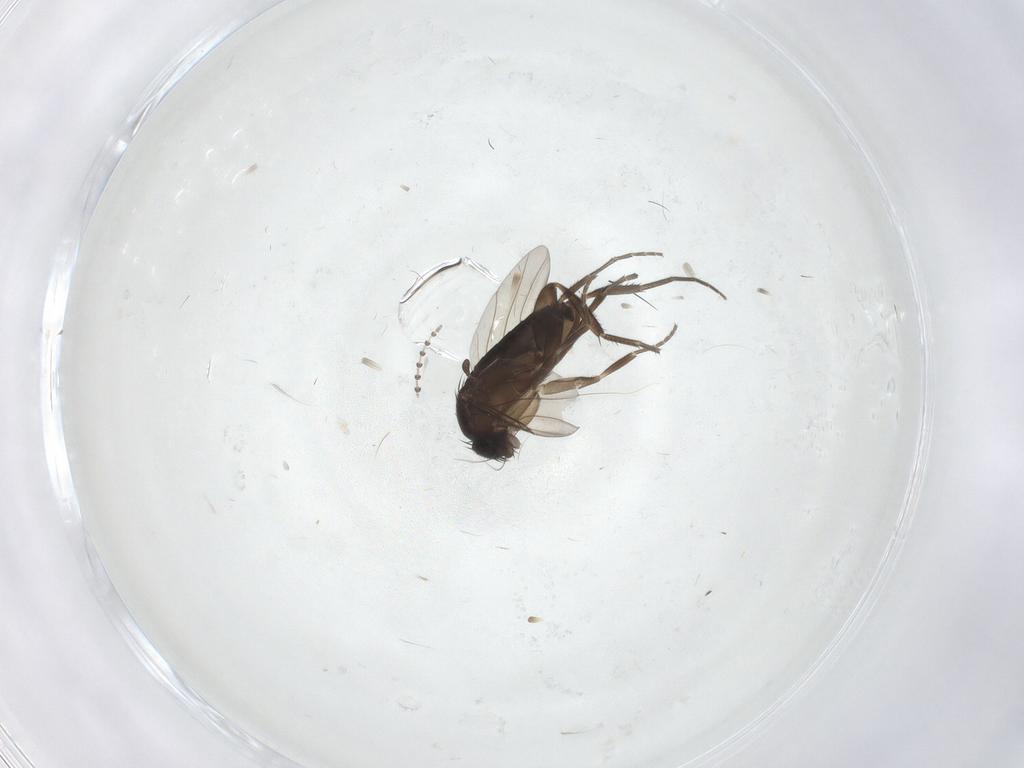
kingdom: Animalia
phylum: Arthropoda
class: Insecta
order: Diptera
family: Phoridae
